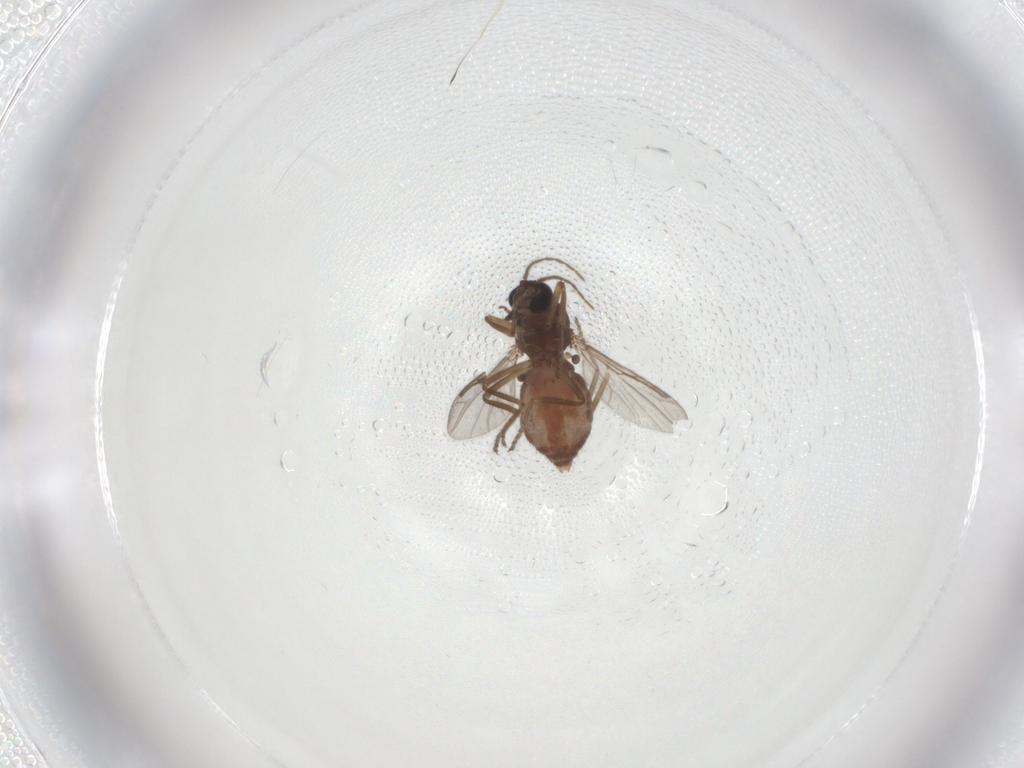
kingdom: Animalia
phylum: Arthropoda
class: Insecta
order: Diptera
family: Ceratopogonidae
